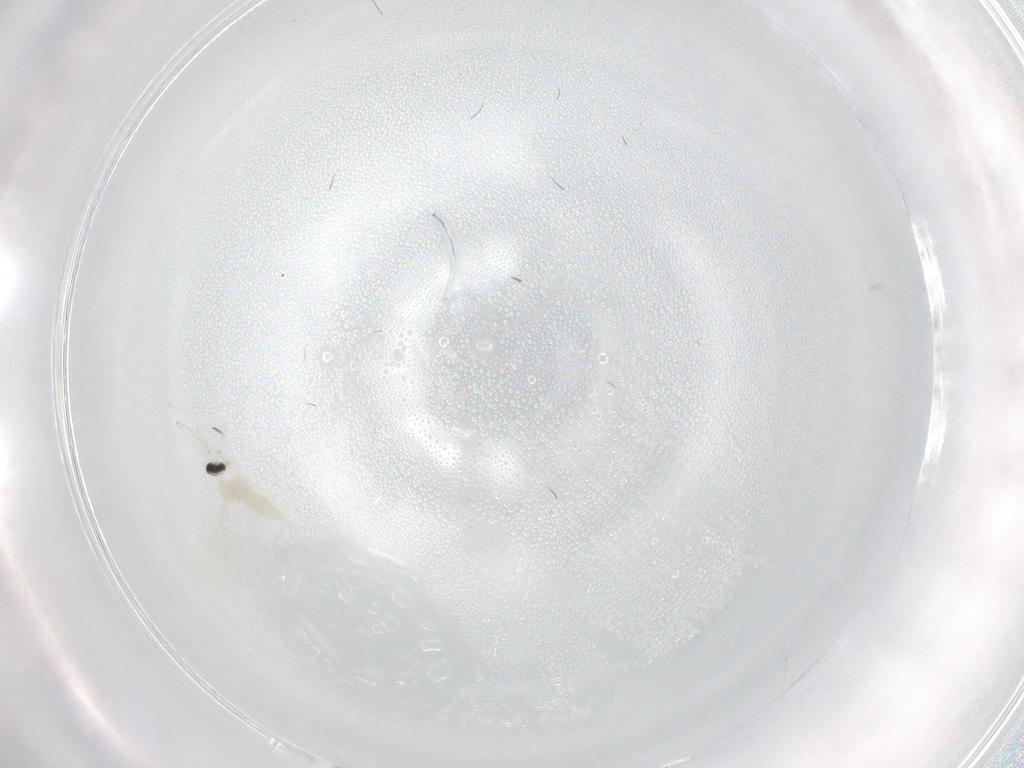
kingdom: Animalia
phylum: Arthropoda
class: Insecta
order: Diptera
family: Cecidomyiidae
